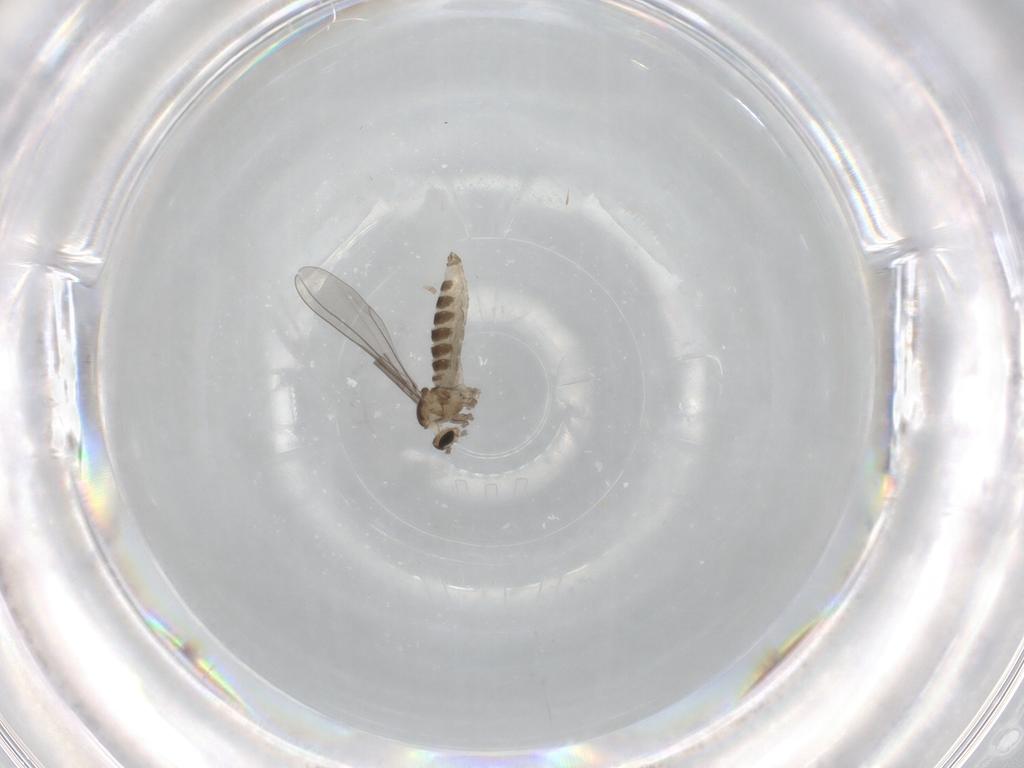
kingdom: Animalia
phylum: Arthropoda
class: Insecta
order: Diptera
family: Cecidomyiidae
